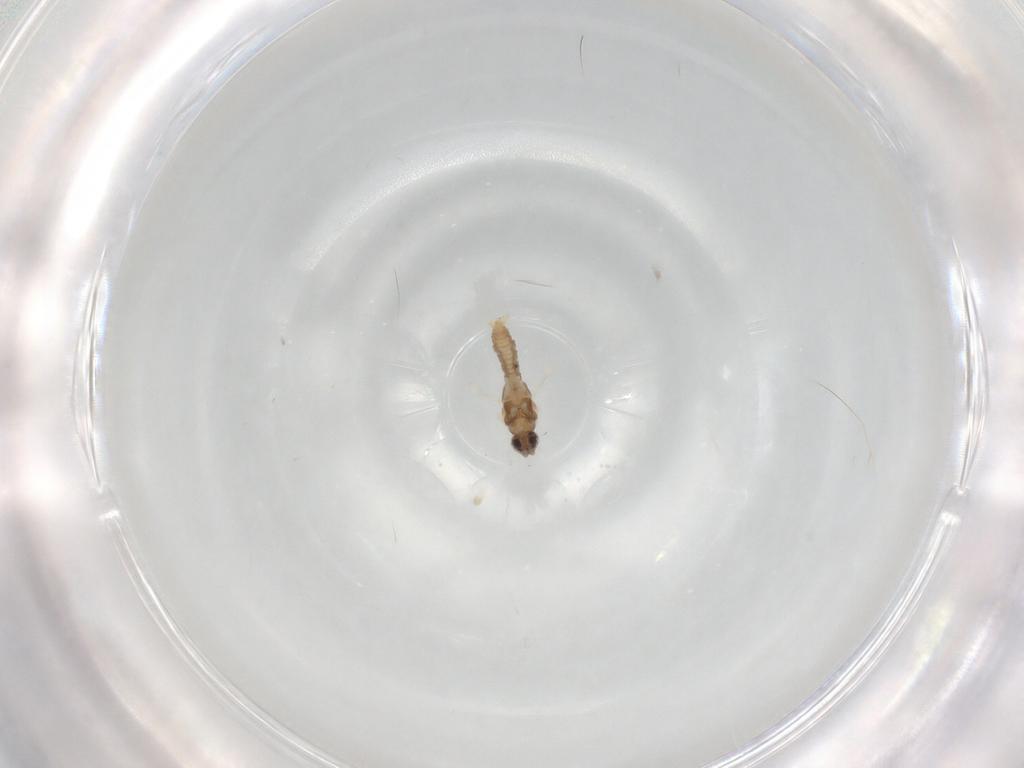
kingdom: Animalia
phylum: Arthropoda
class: Insecta
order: Diptera
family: Cecidomyiidae
